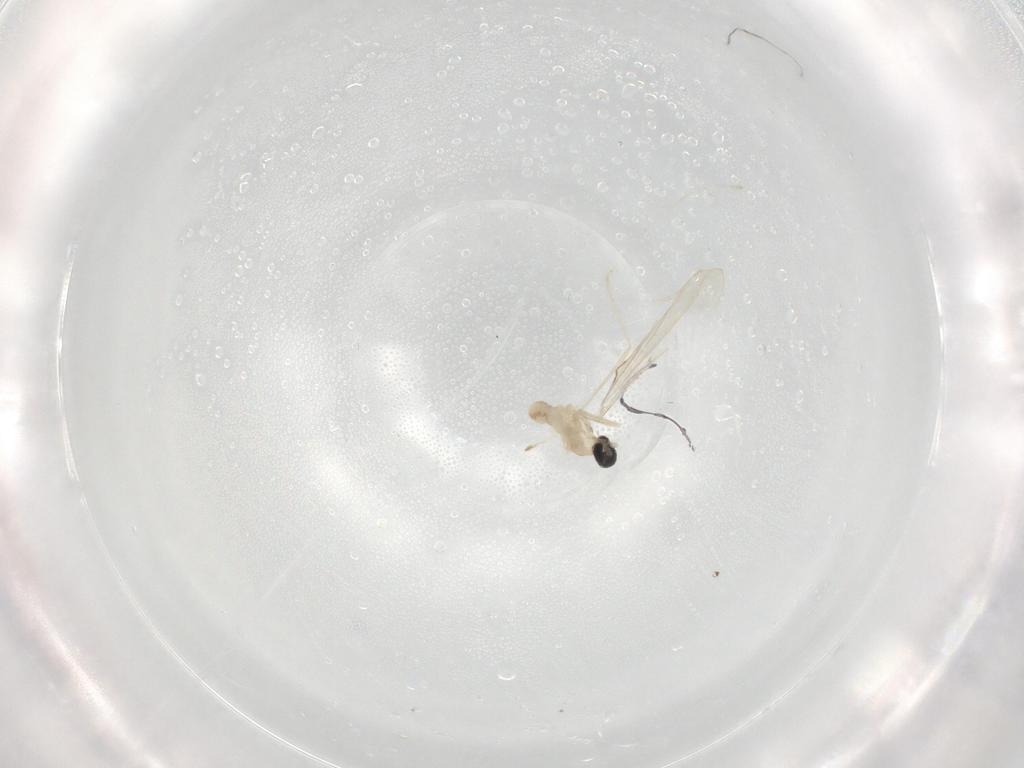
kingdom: Animalia
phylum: Arthropoda
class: Insecta
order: Diptera
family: Cecidomyiidae
